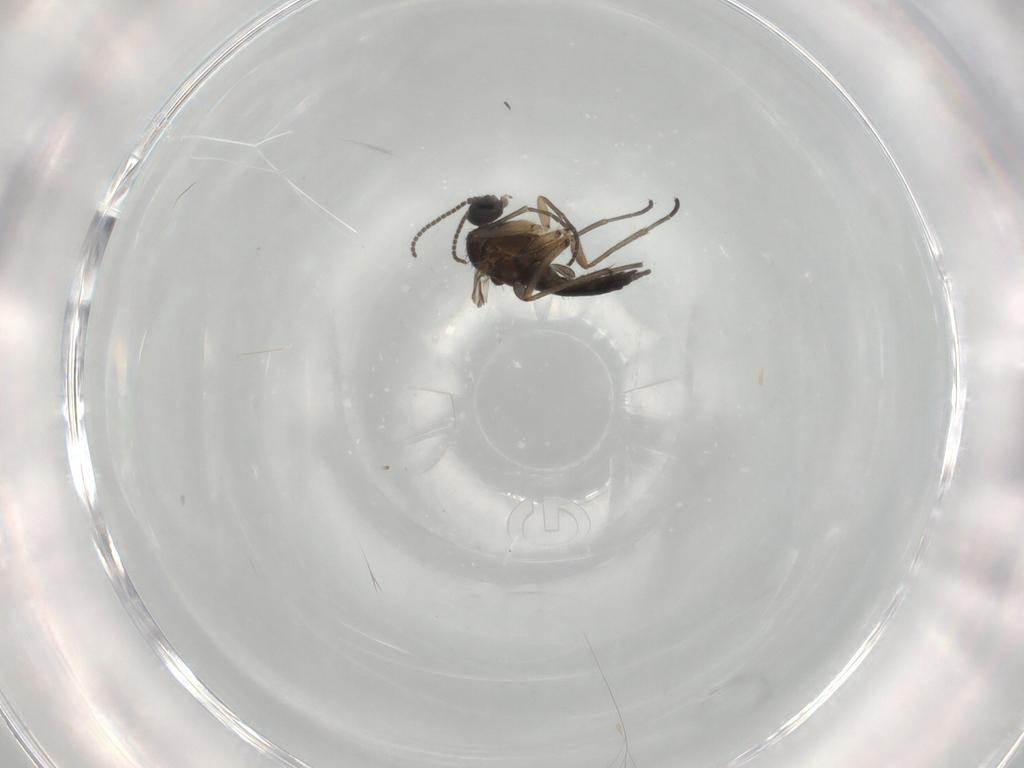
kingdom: Animalia
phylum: Arthropoda
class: Insecta
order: Diptera
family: Sciaridae
